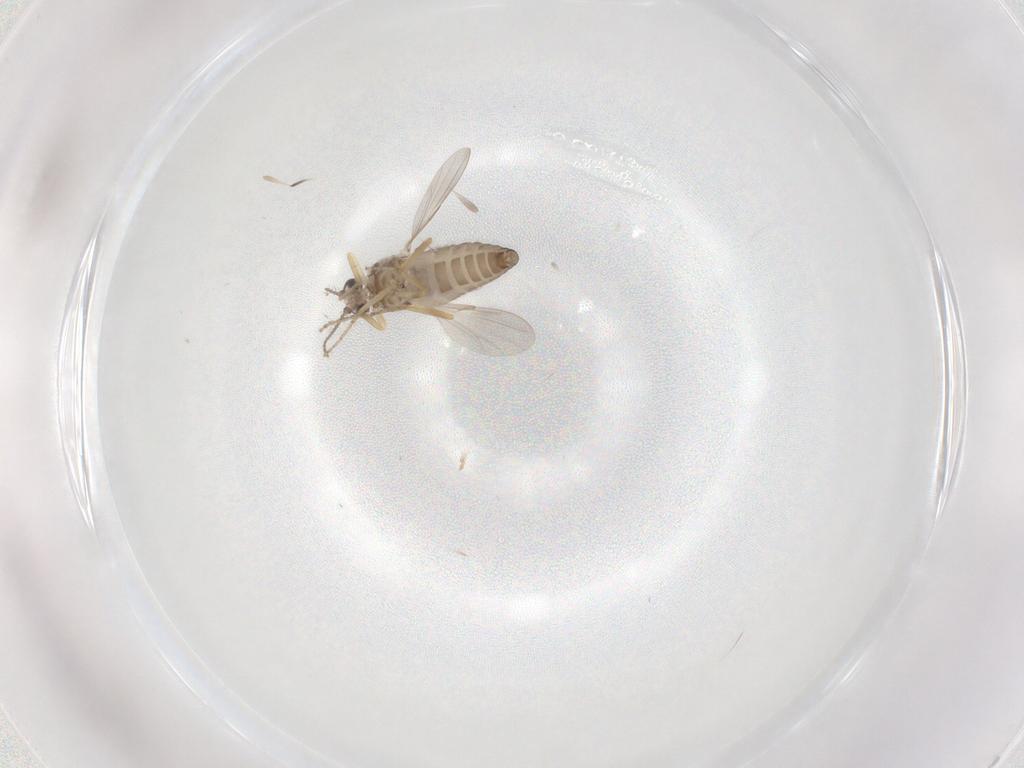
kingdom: Animalia
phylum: Arthropoda
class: Insecta
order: Diptera
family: Ceratopogonidae
